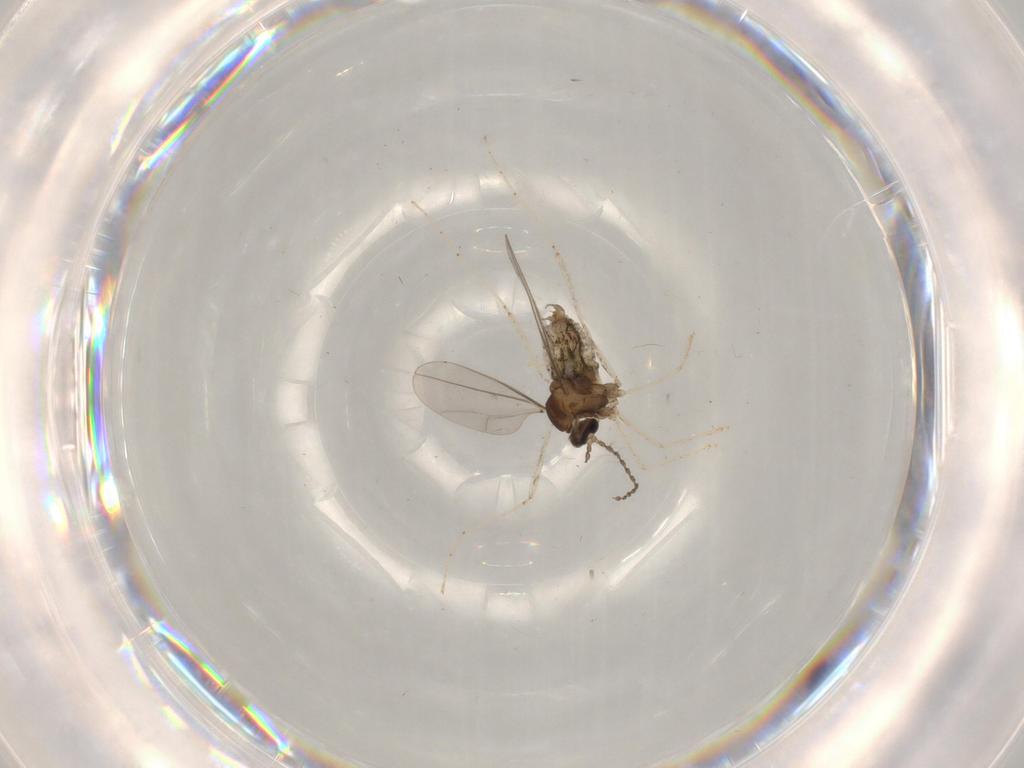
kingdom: Animalia
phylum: Arthropoda
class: Insecta
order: Diptera
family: Cecidomyiidae
